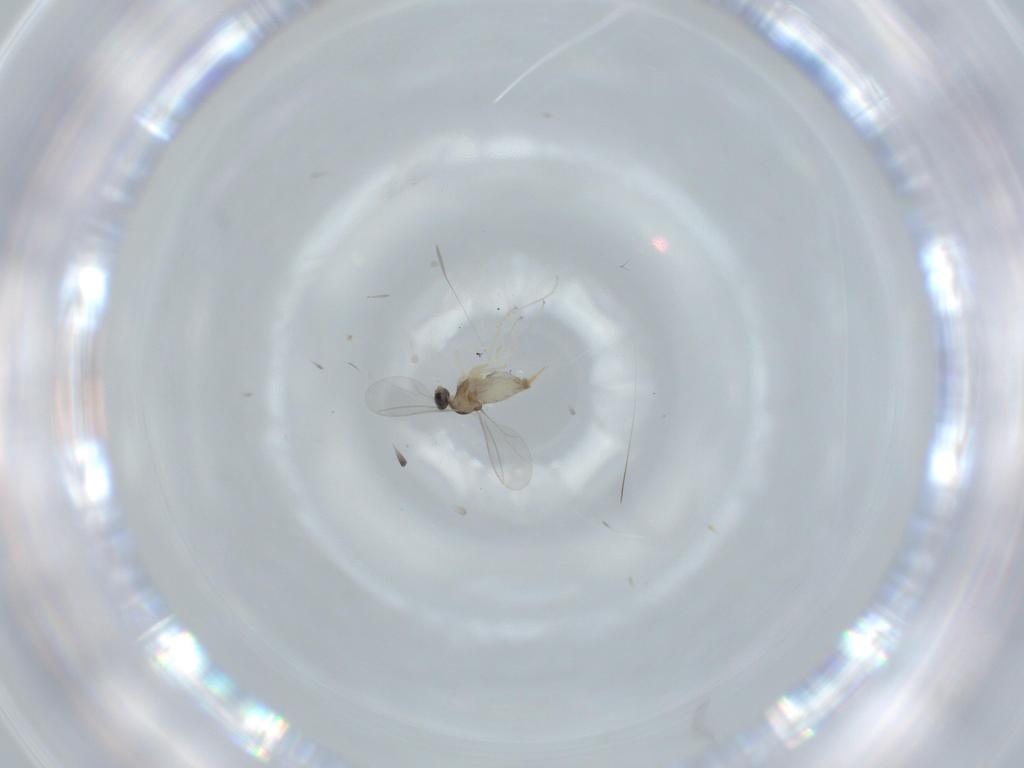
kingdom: Animalia
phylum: Arthropoda
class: Insecta
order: Diptera
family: Cecidomyiidae
